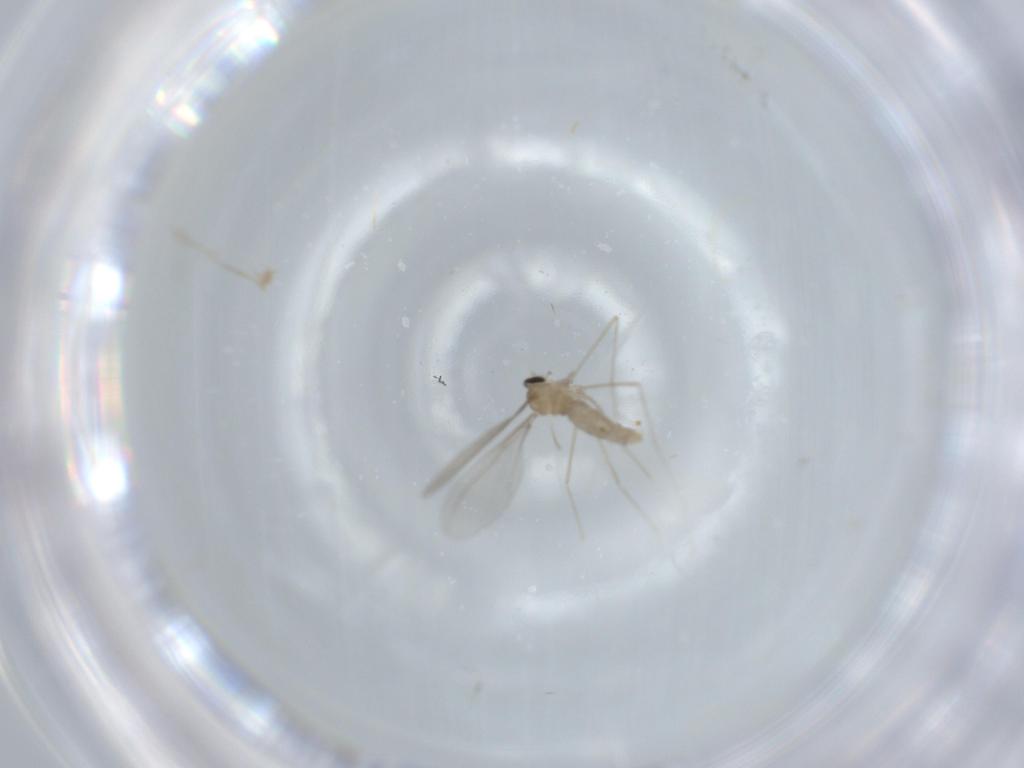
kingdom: Animalia
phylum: Arthropoda
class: Insecta
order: Diptera
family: Cecidomyiidae
